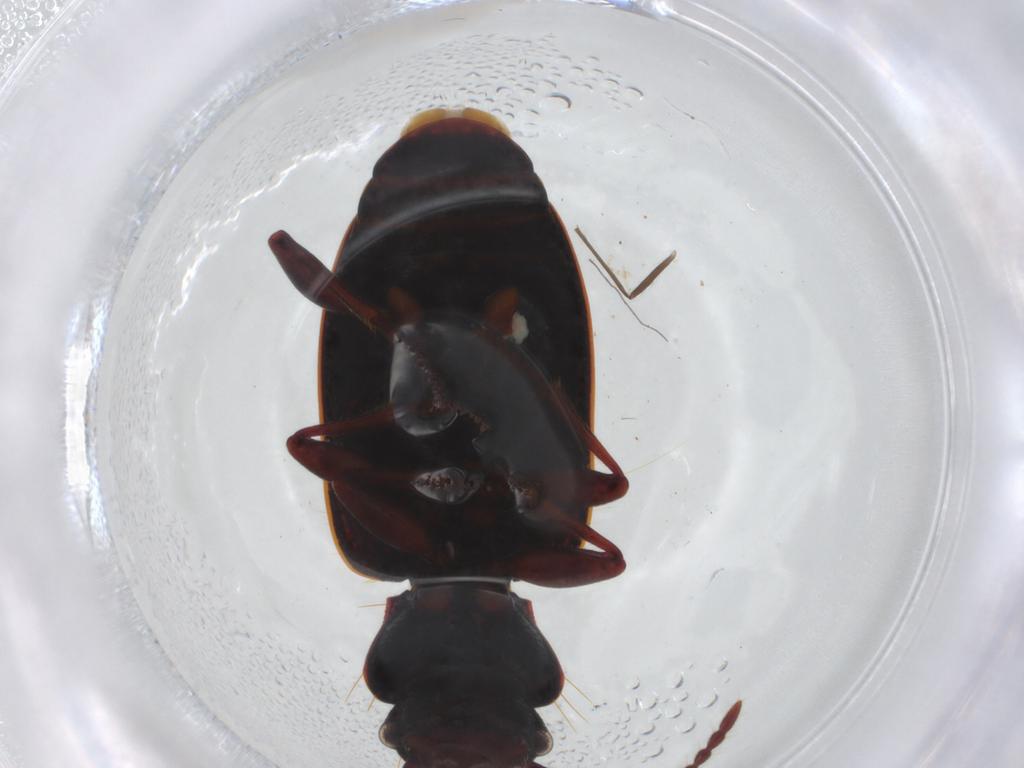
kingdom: Animalia
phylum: Arthropoda
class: Insecta
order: Coleoptera
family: Carabidae
